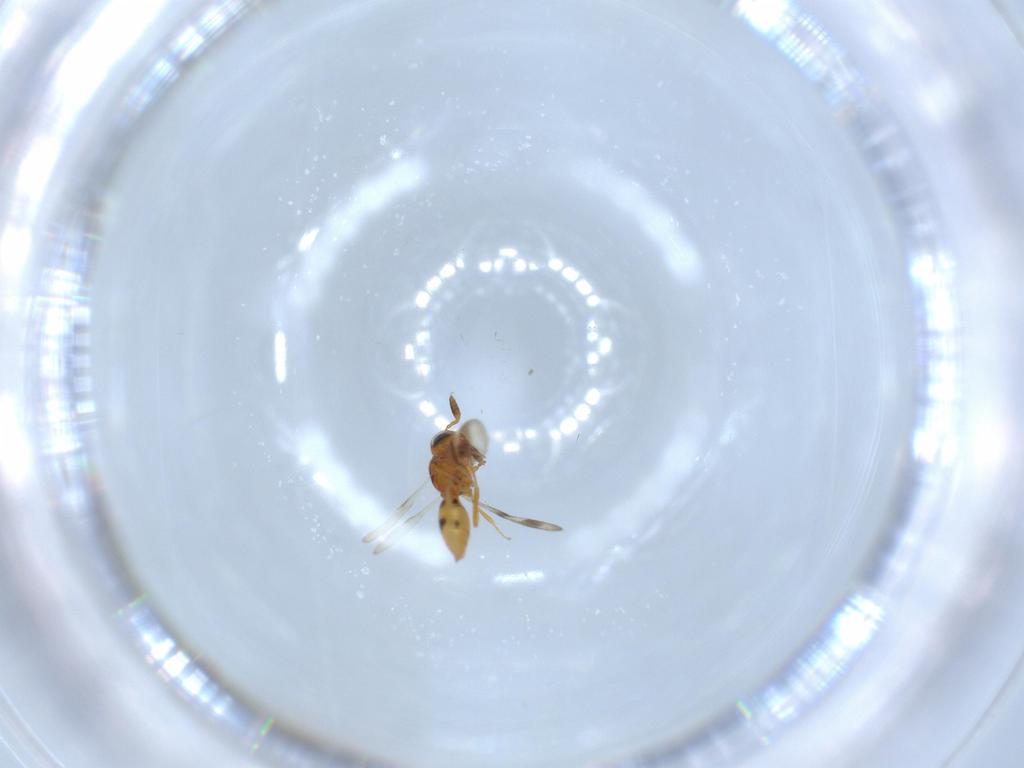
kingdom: Animalia
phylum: Arthropoda
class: Insecta
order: Hymenoptera
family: Scelionidae
